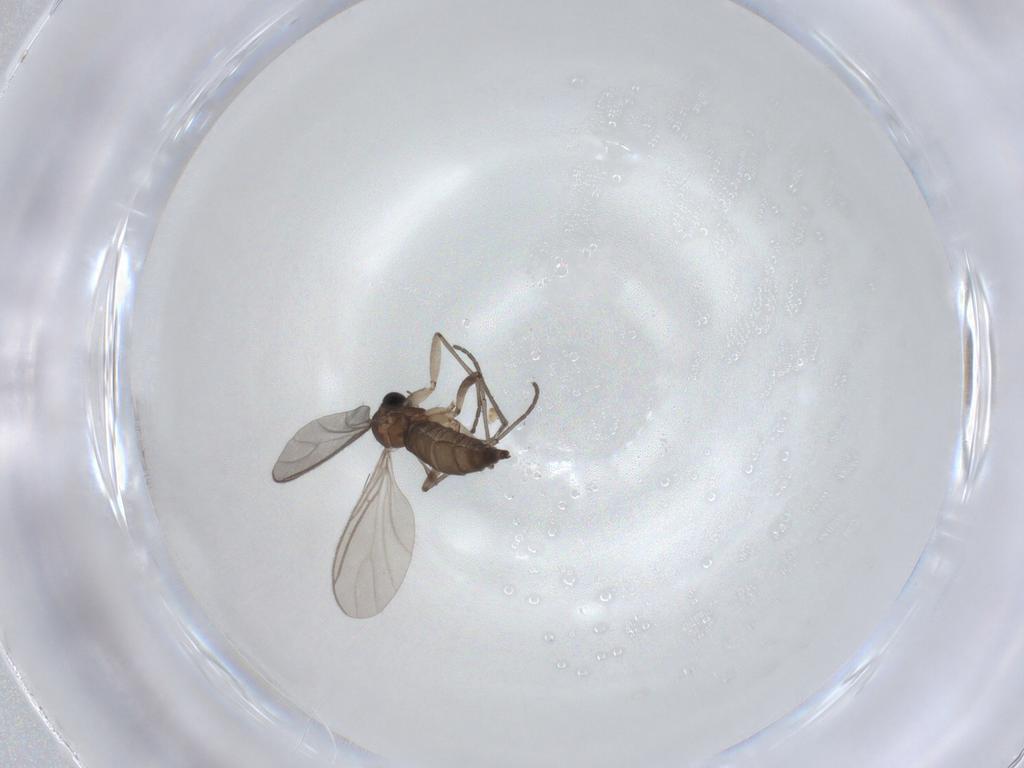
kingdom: Animalia
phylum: Arthropoda
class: Insecta
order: Diptera
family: Sciaridae
